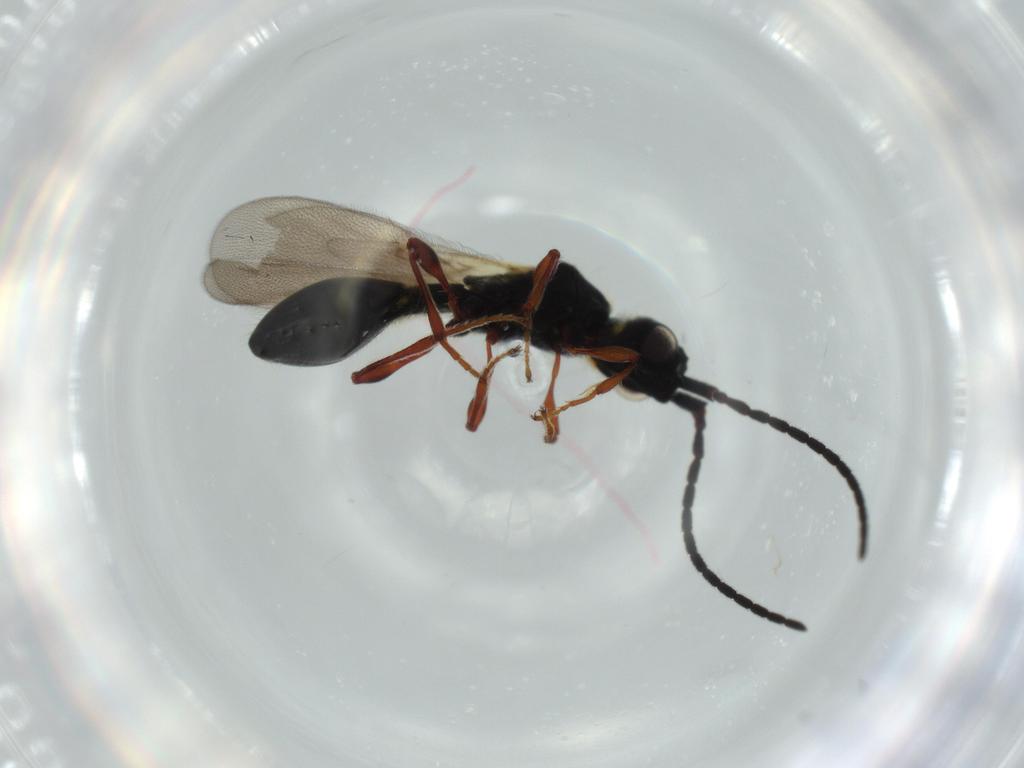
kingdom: Animalia
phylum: Arthropoda
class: Insecta
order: Hymenoptera
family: Diapriidae
